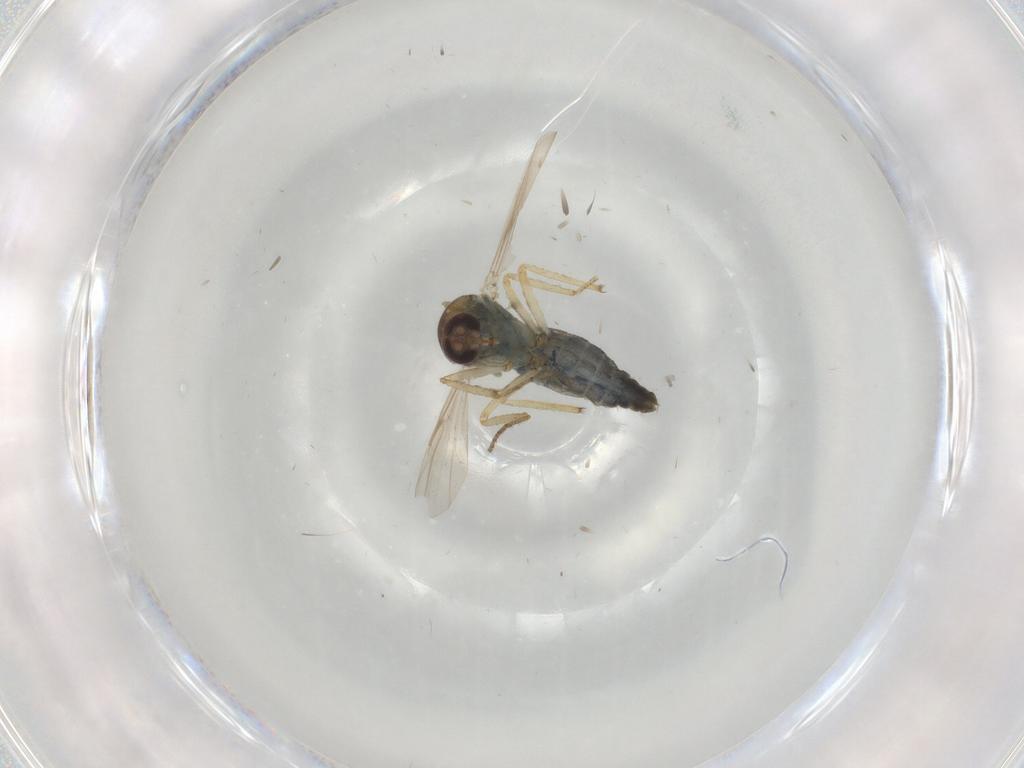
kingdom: Animalia
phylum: Arthropoda
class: Insecta
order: Diptera
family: Ceratopogonidae
